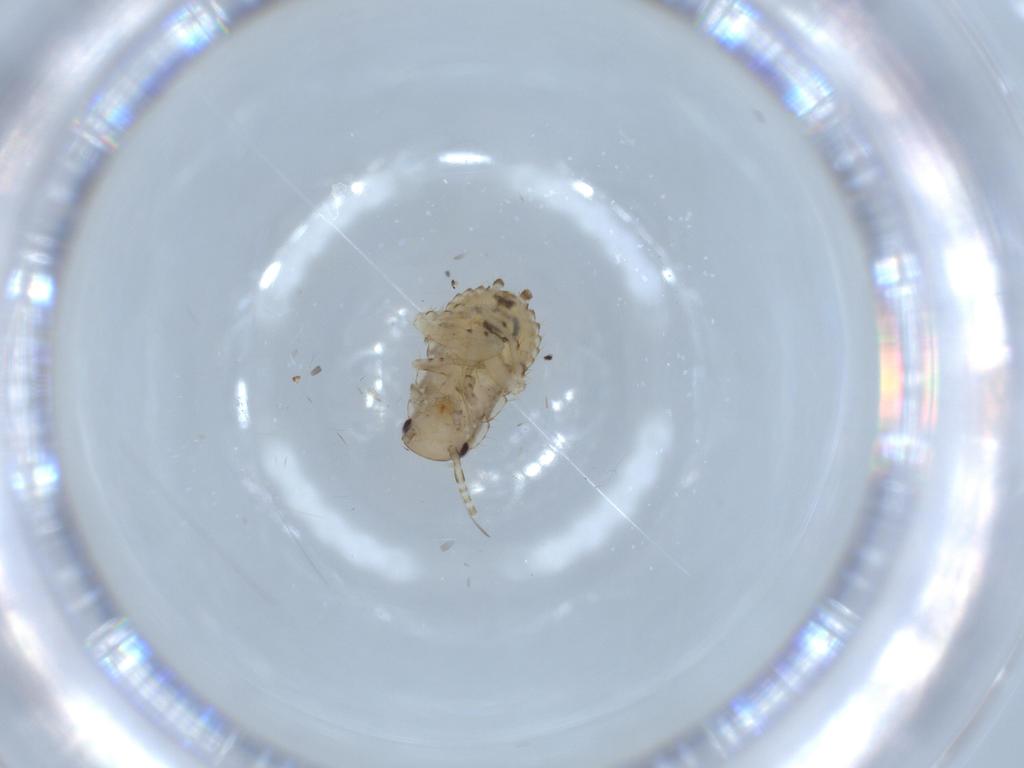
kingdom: Animalia
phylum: Arthropoda
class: Insecta
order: Blattodea
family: Ectobiidae
